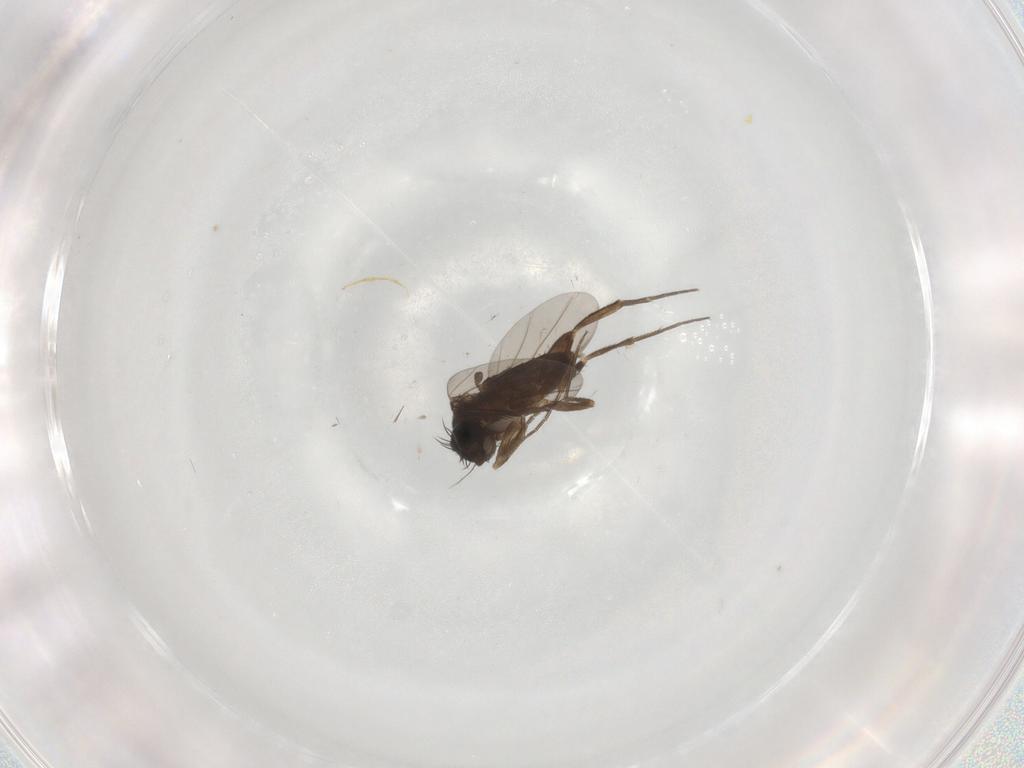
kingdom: Animalia
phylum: Arthropoda
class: Insecta
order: Diptera
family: Phoridae
